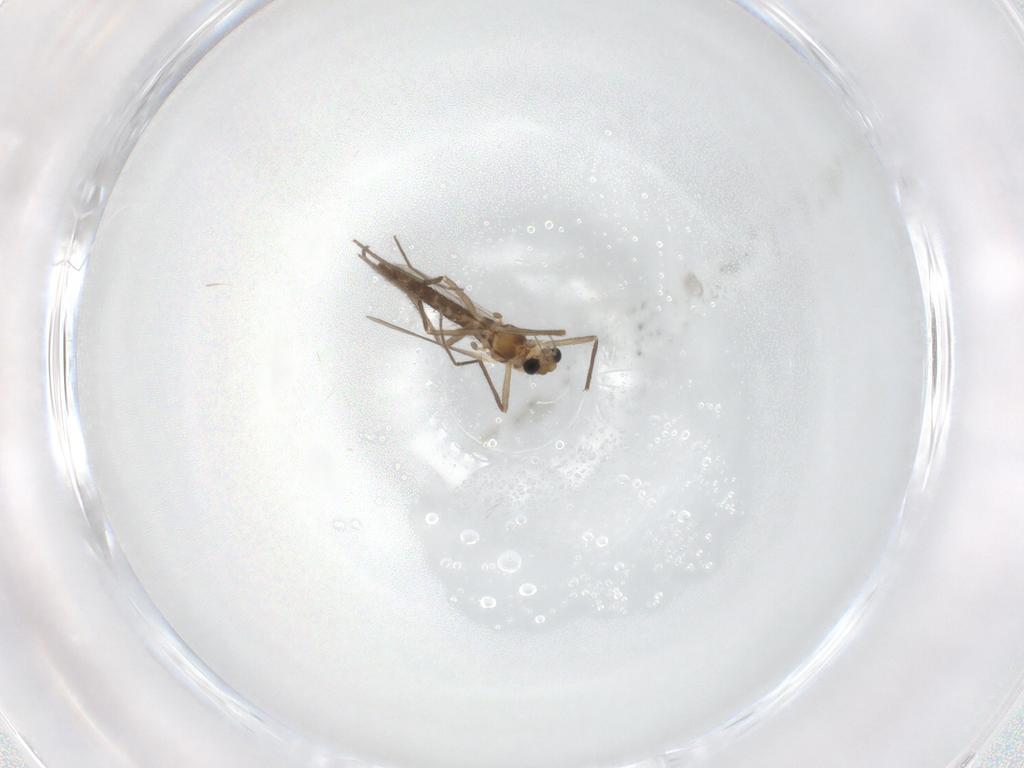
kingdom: Animalia
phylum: Arthropoda
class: Insecta
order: Diptera
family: Chironomidae
